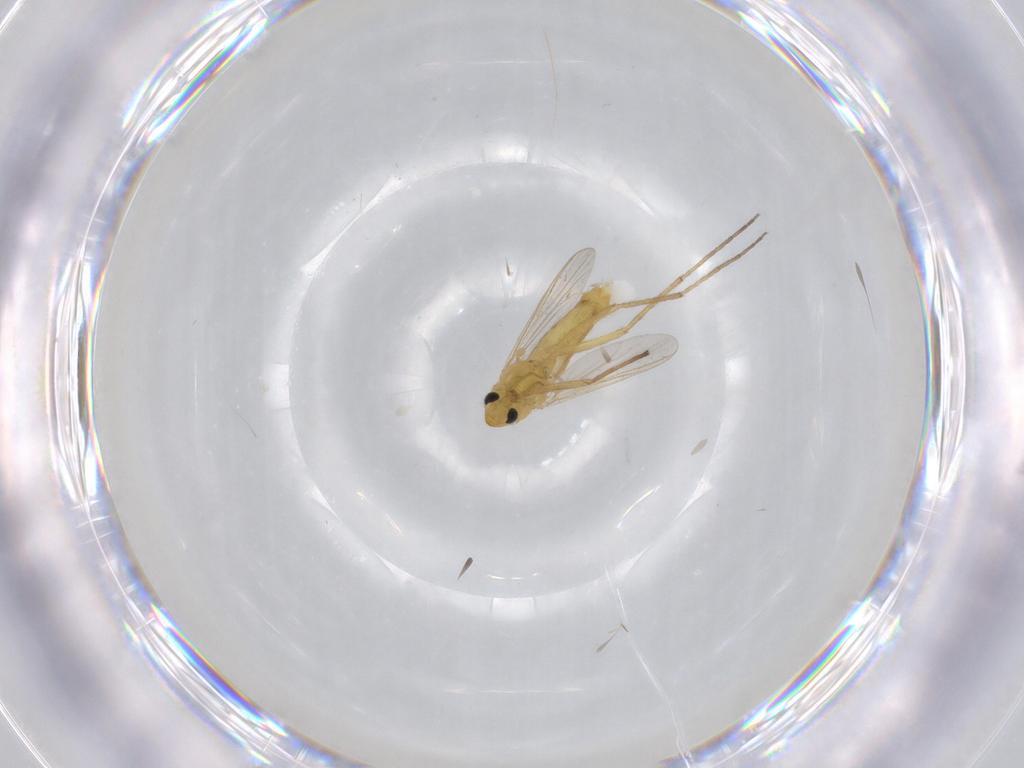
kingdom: Animalia
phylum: Arthropoda
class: Insecta
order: Diptera
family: Chironomidae
